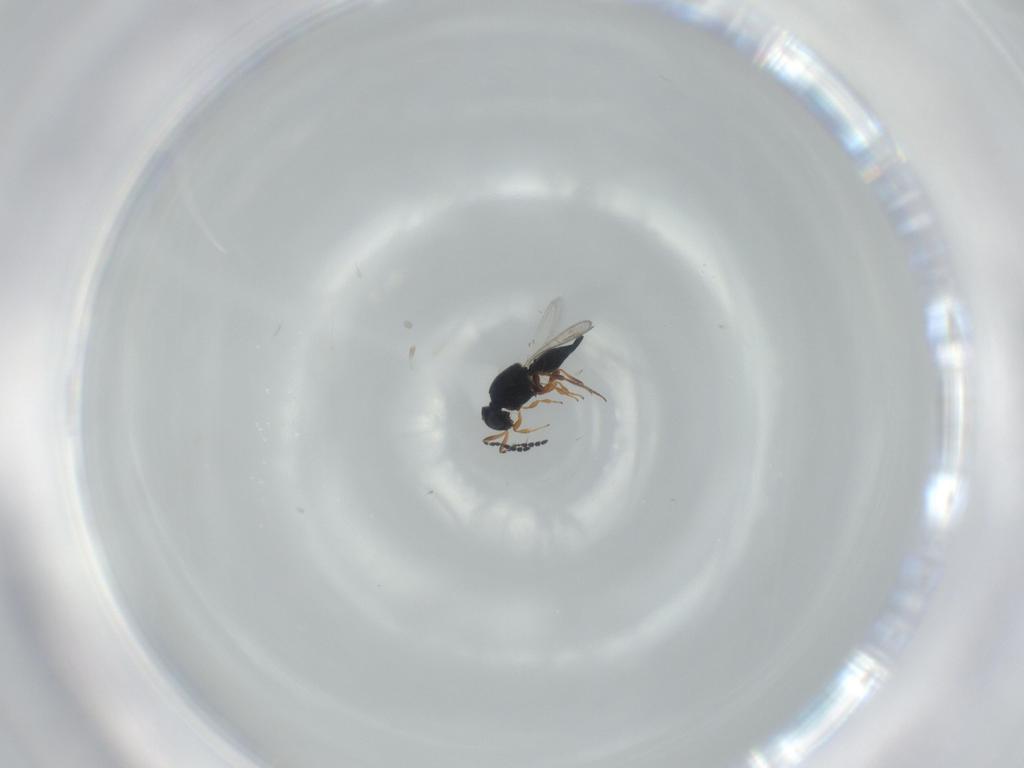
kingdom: Animalia
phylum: Arthropoda
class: Insecta
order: Hymenoptera
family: Platygastridae
